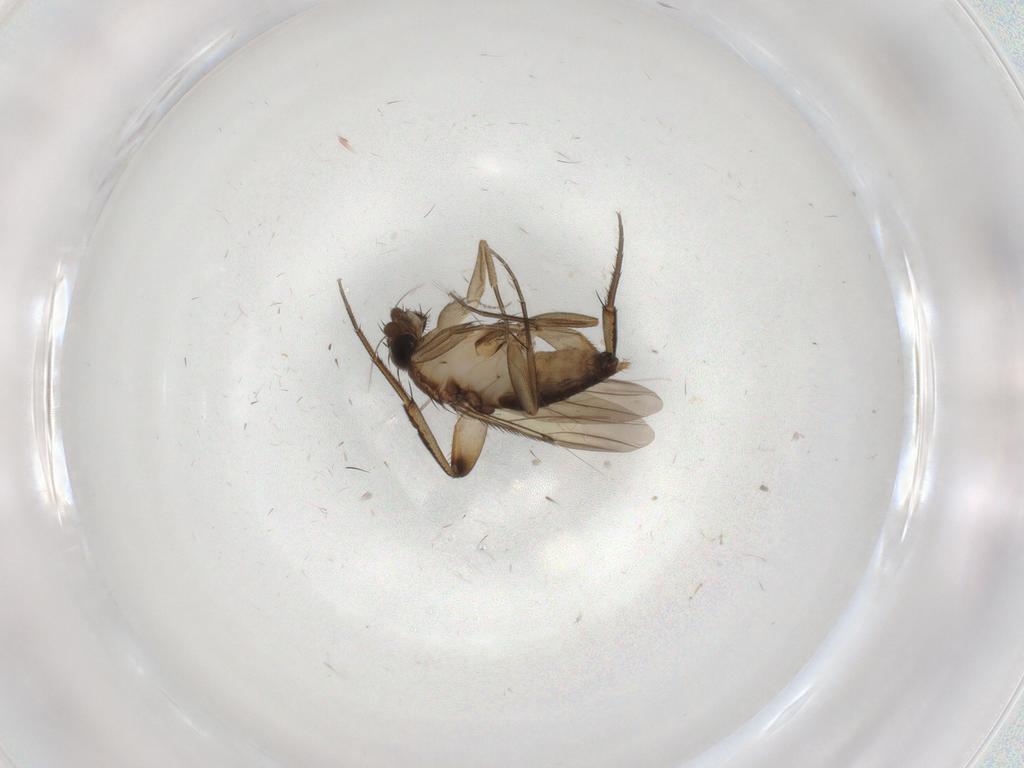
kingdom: Animalia
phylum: Arthropoda
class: Insecta
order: Diptera
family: Phoridae
